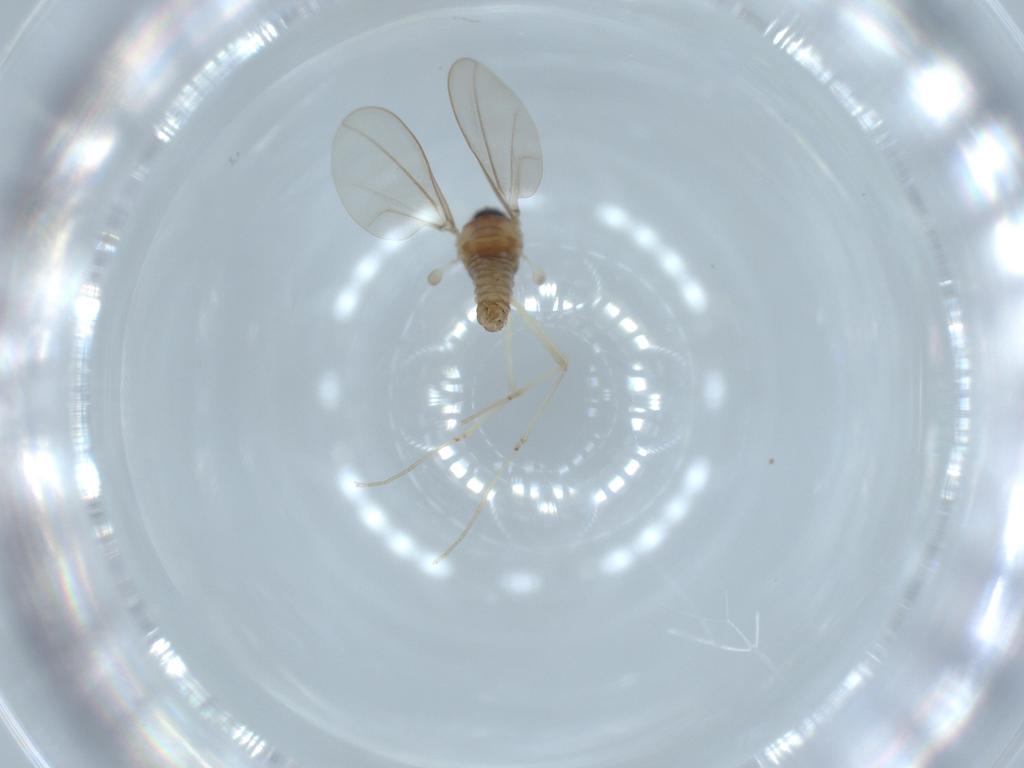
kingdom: Animalia
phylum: Arthropoda
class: Insecta
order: Diptera
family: Cecidomyiidae
